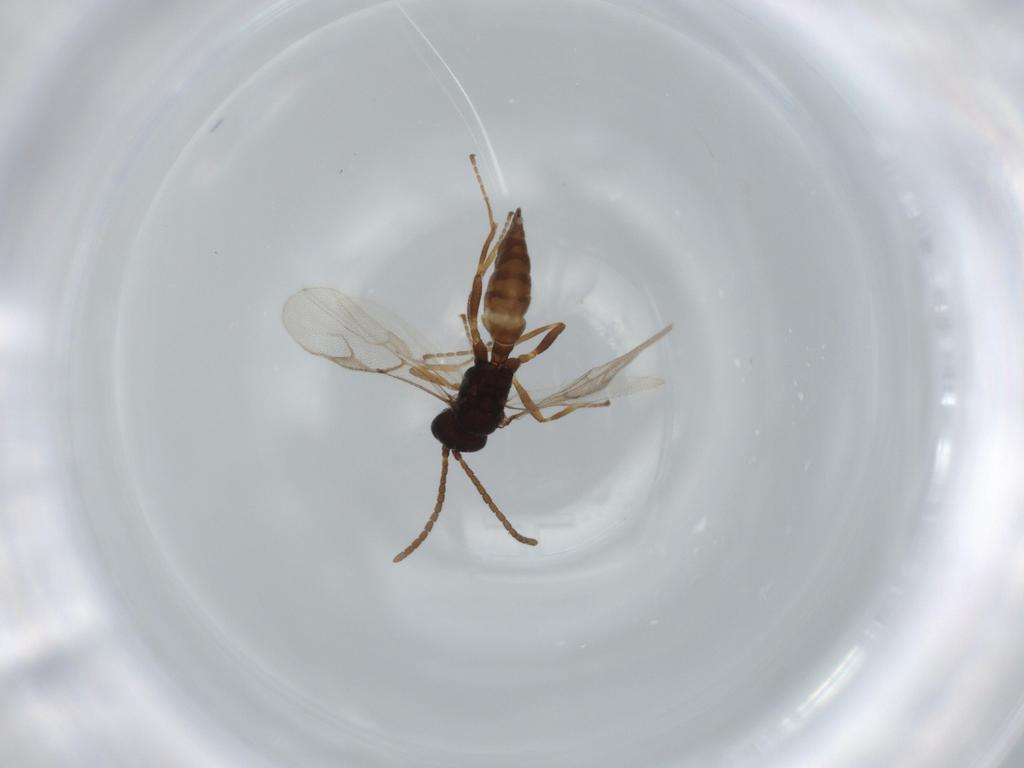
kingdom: Animalia
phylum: Arthropoda
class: Insecta
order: Hymenoptera
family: Braconidae
